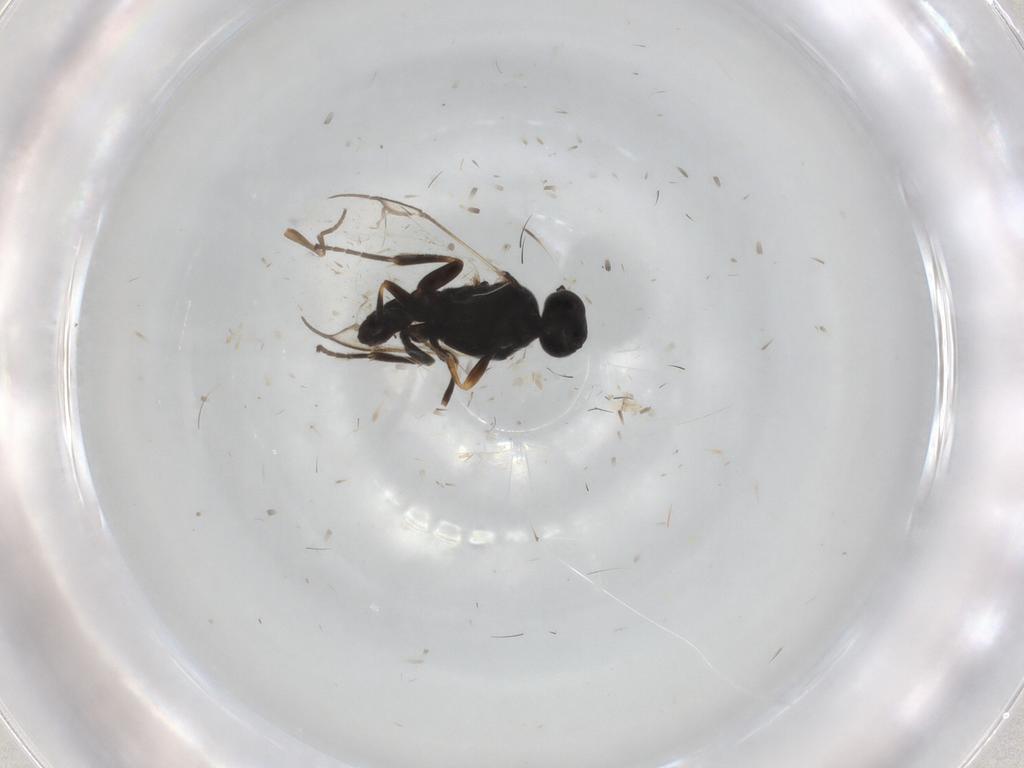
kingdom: Animalia
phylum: Arthropoda
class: Insecta
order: Hymenoptera
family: Braconidae
